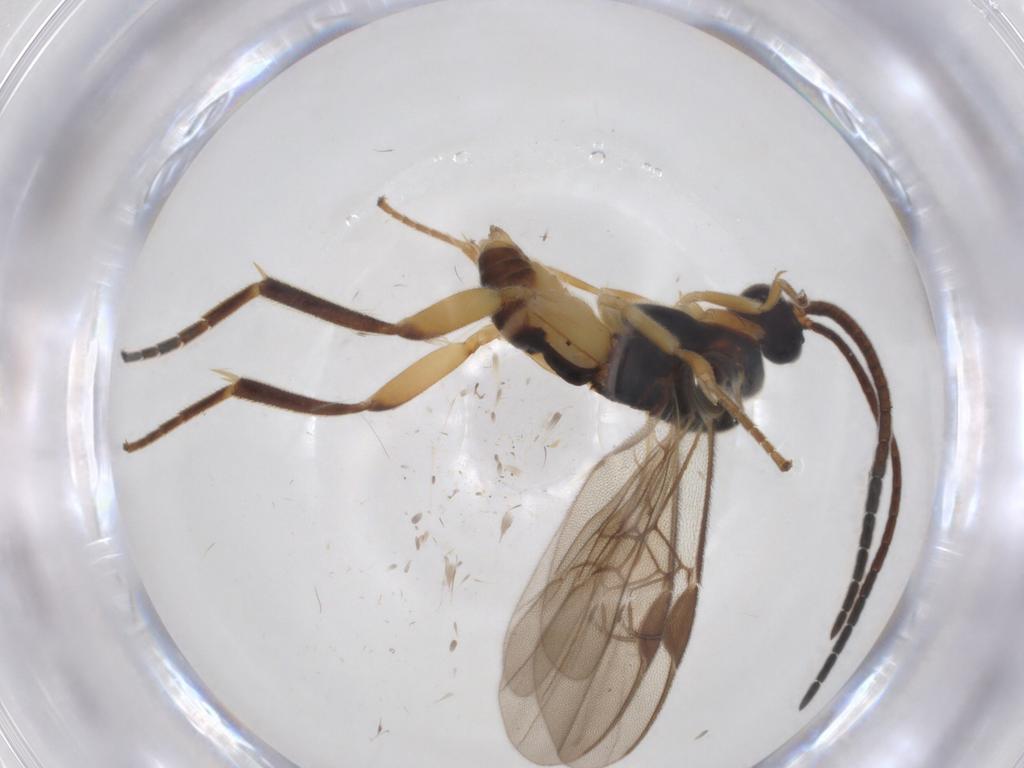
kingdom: Animalia
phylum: Arthropoda
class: Insecta
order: Hymenoptera
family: Braconidae
